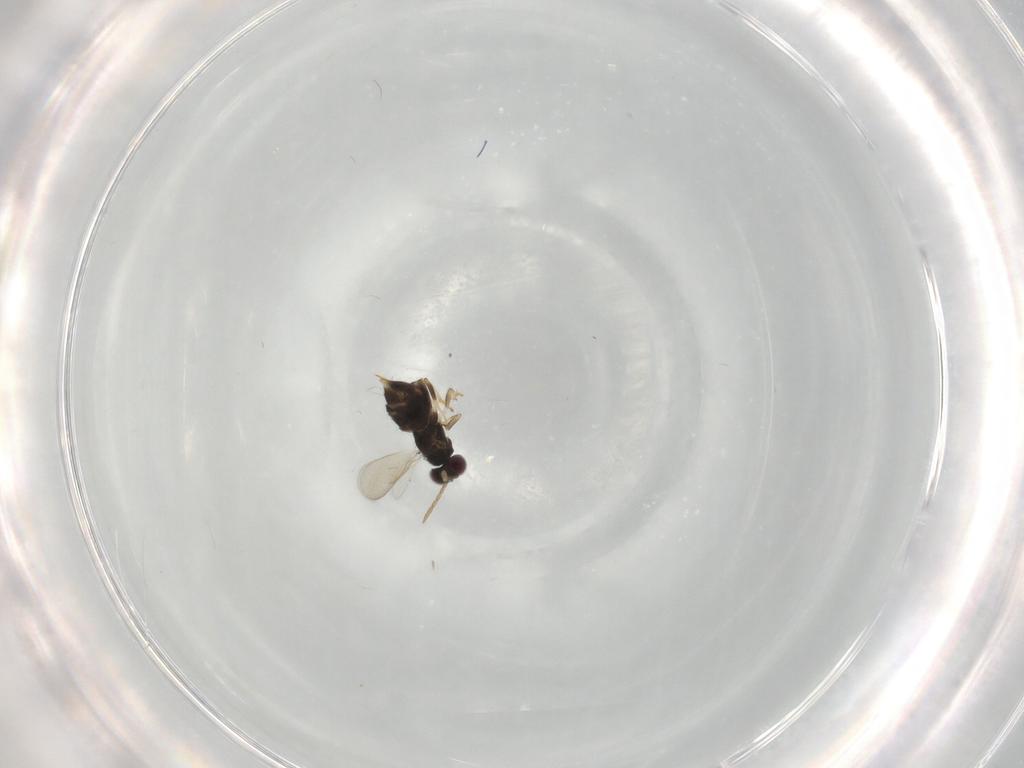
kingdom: Animalia
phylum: Arthropoda
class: Insecta
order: Hymenoptera
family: Aphelinidae
